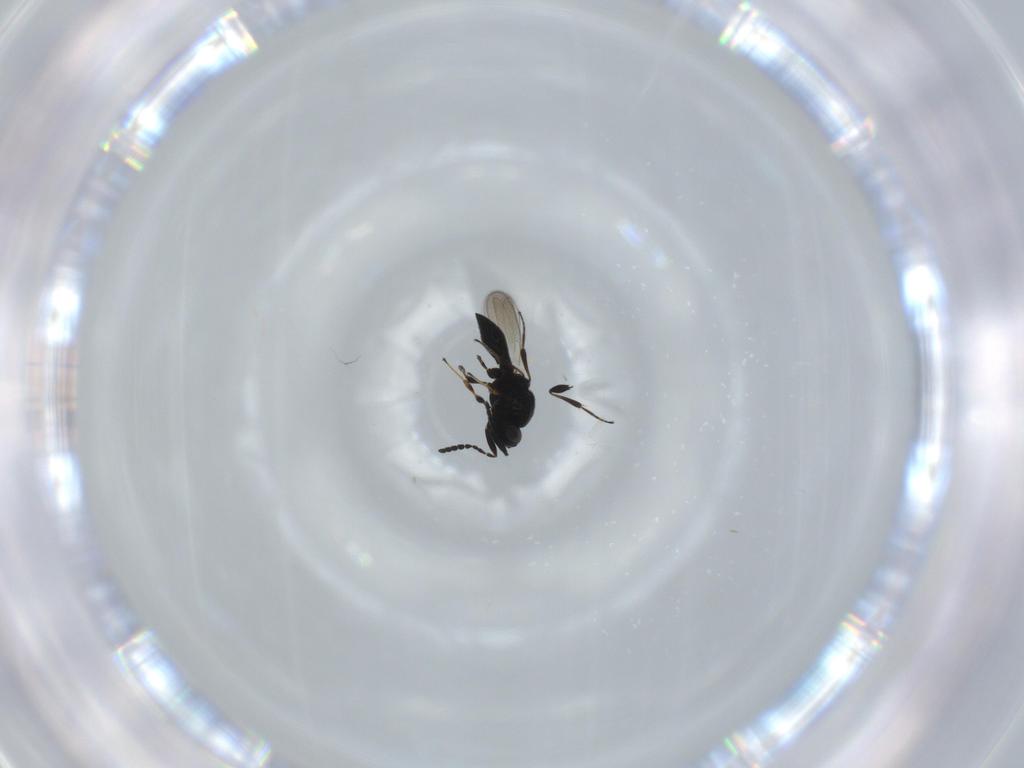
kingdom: Animalia
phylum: Arthropoda
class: Insecta
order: Hymenoptera
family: Platygastridae
